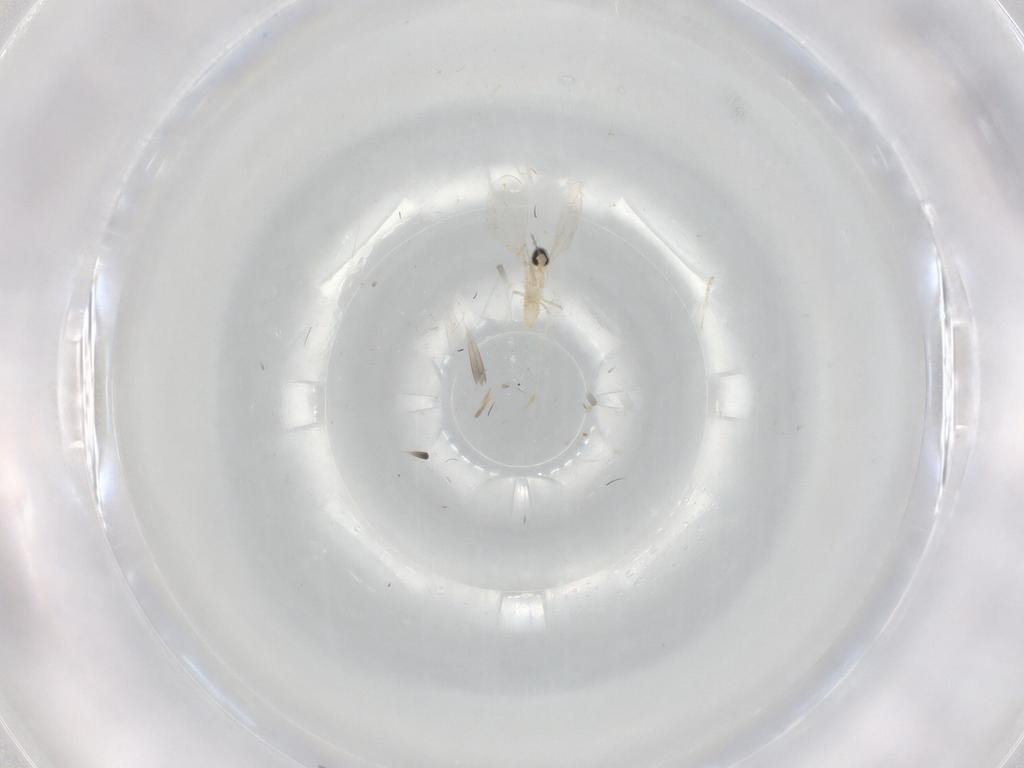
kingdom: Animalia
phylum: Arthropoda
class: Insecta
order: Diptera
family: Cecidomyiidae
